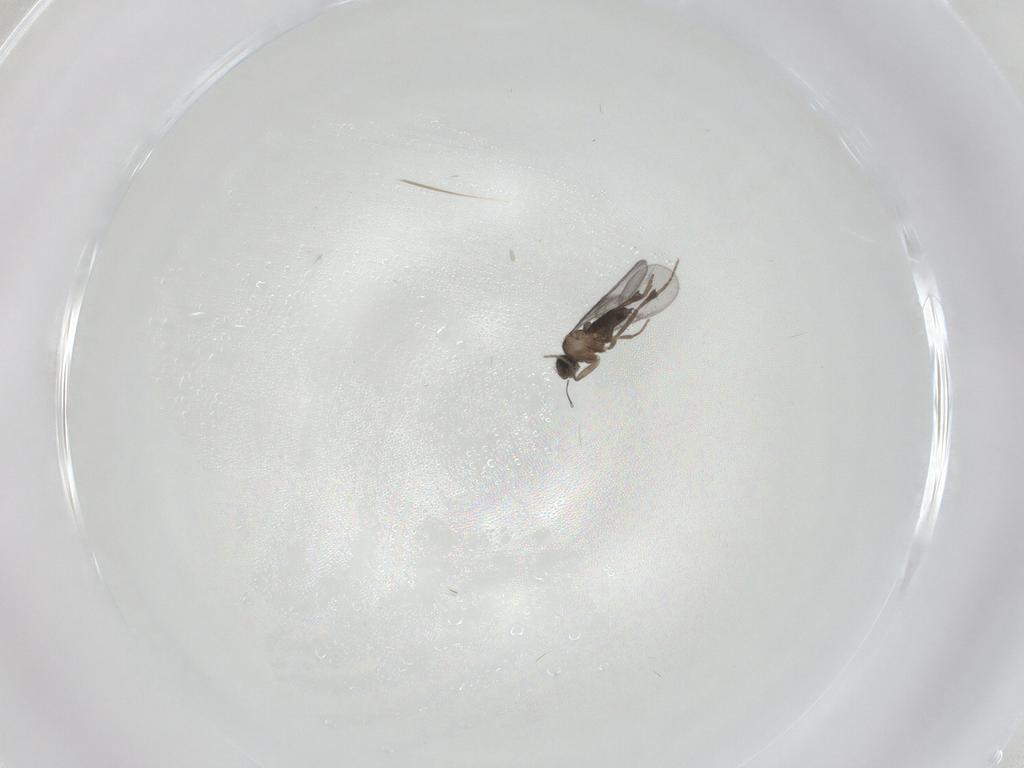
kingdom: Animalia
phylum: Arthropoda
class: Insecta
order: Diptera
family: Phoridae
